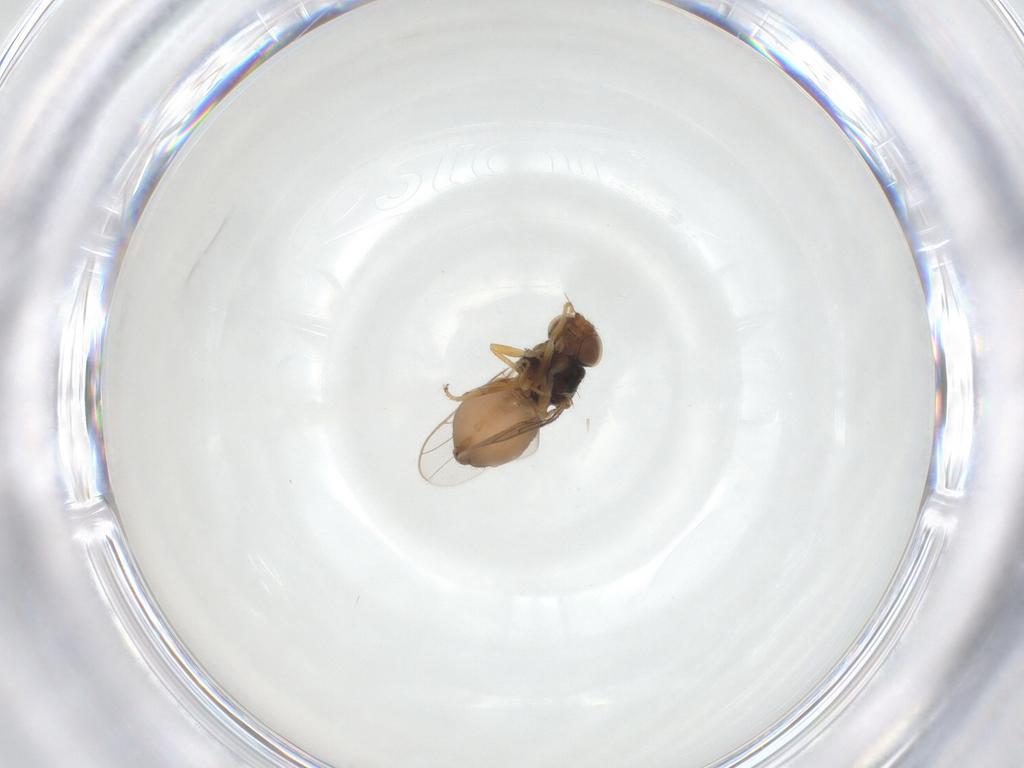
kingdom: Animalia
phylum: Arthropoda
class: Insecta
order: Diptera
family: Chloropidae
